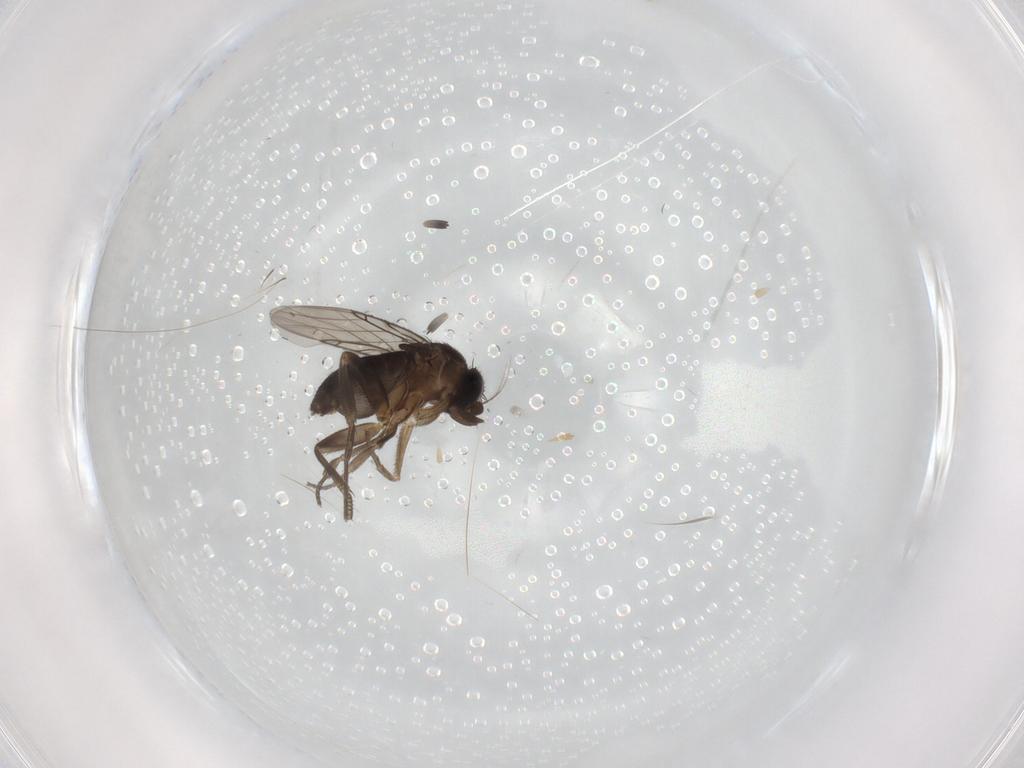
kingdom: Animalia
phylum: Arthropoda
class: Insecta
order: Diptera
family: Phoridae
